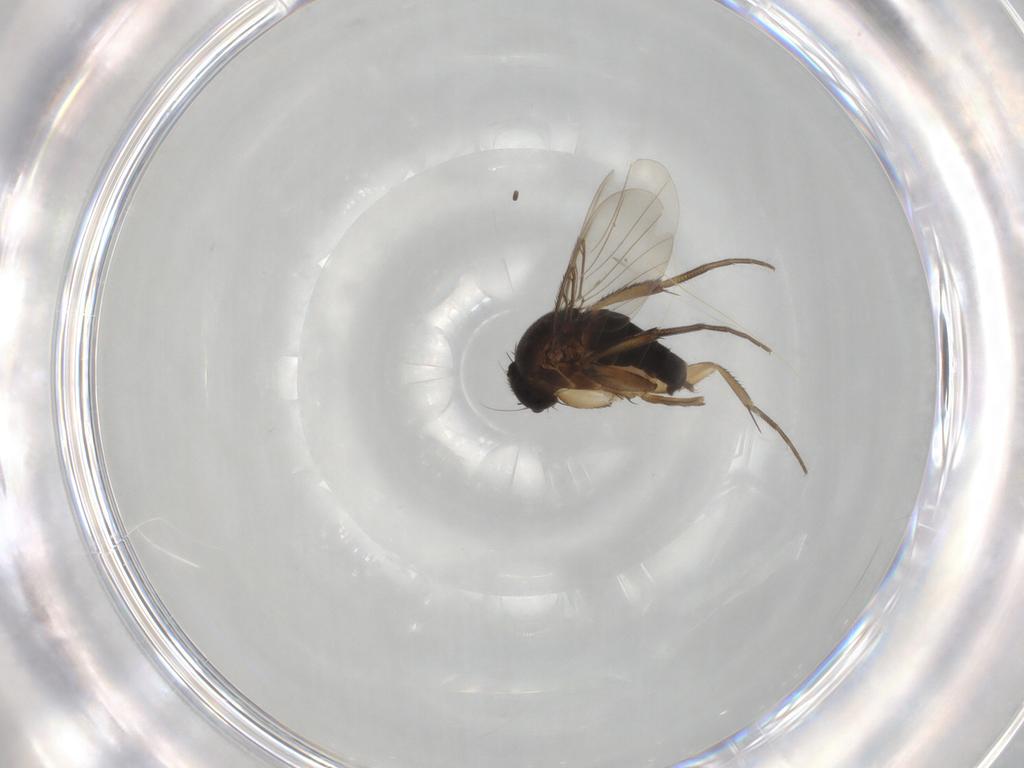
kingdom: Animalia
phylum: Arthropoda
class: Insecta
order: Diptera
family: Phoridae
